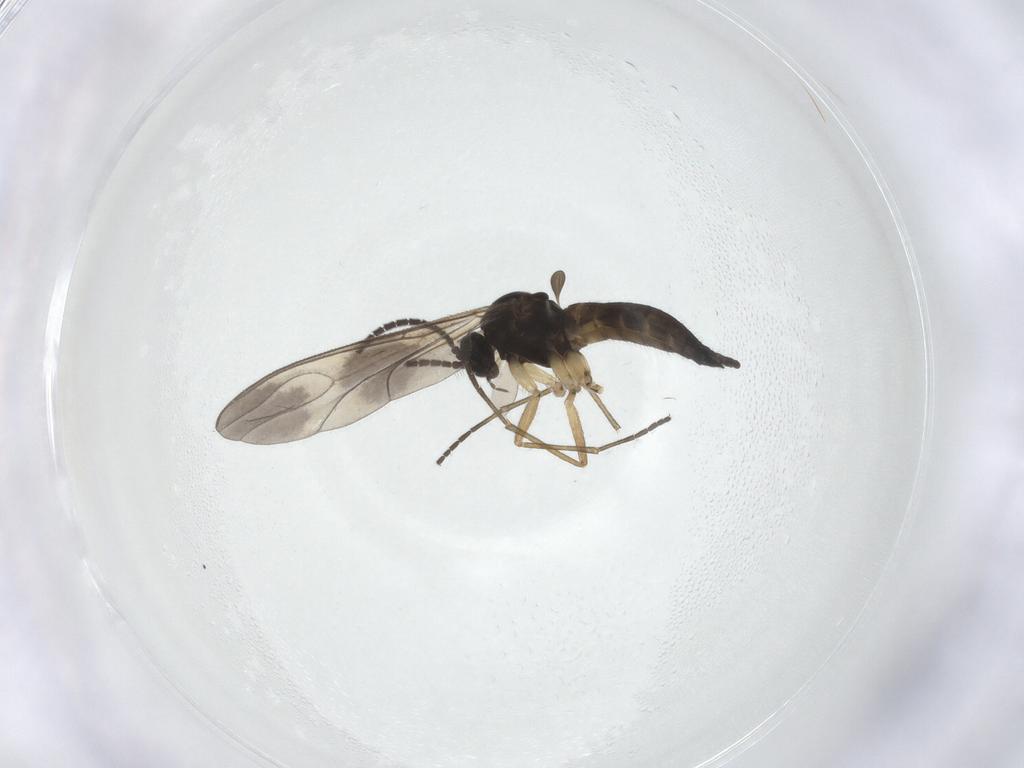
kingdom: Animalia
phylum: Arthropoda
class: Insecta
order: Diptera
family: Sciaridae
